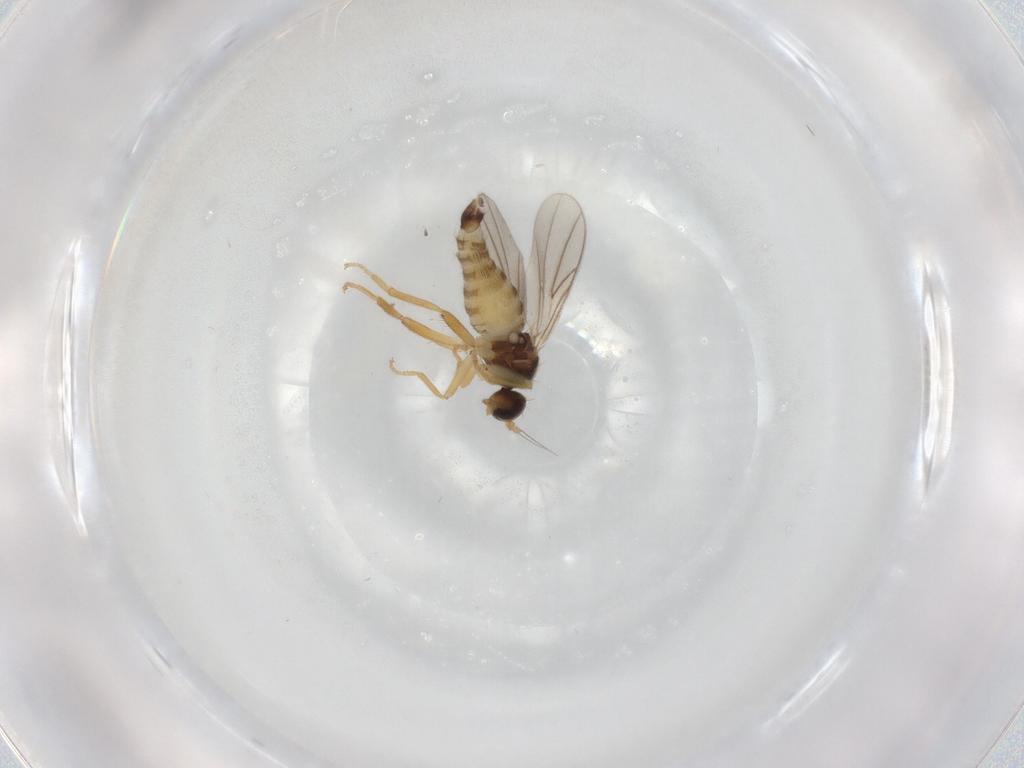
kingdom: Animalia
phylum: Arthropoda
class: Insecta
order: Diptera
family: Hybotidae
